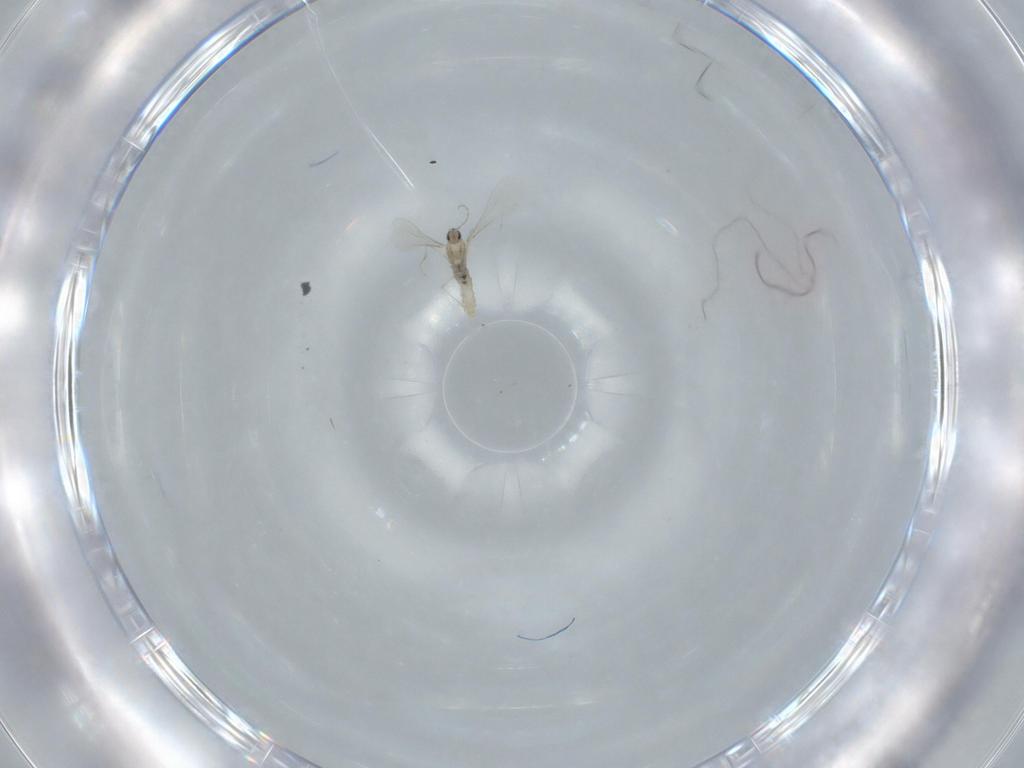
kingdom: Animalia
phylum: Arthropoda
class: Insecta
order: Diptera
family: Cecidomyiidae
